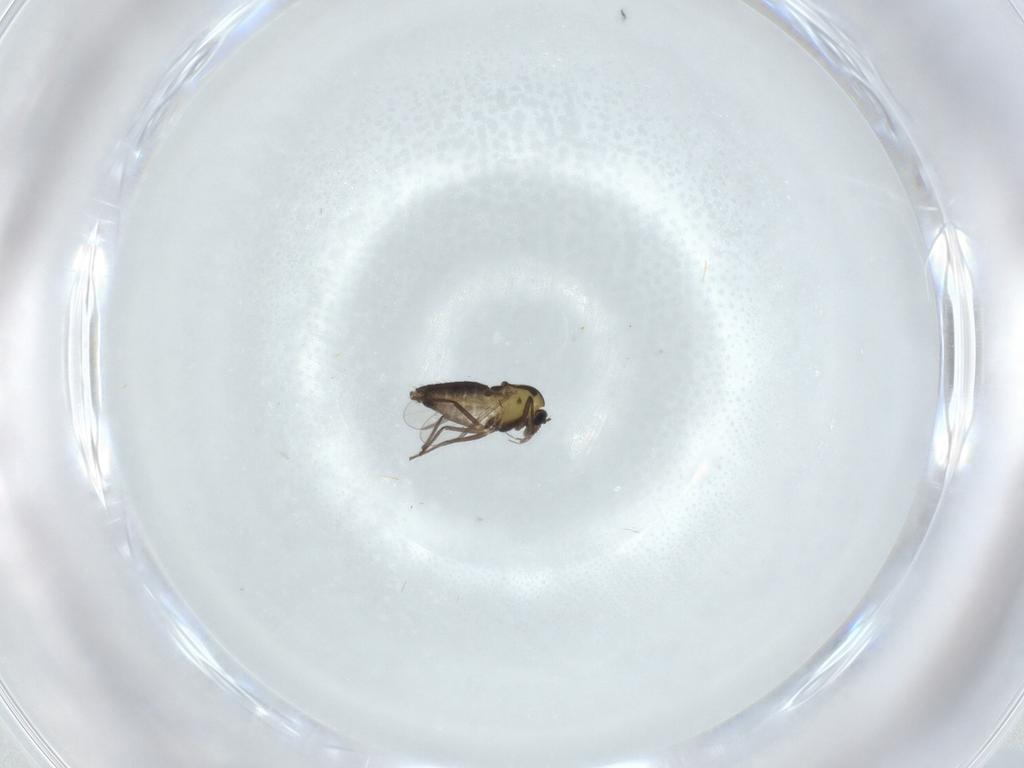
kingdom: Animalia
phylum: Arthropoda
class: Insecta
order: Diptera
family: Chironomidae
